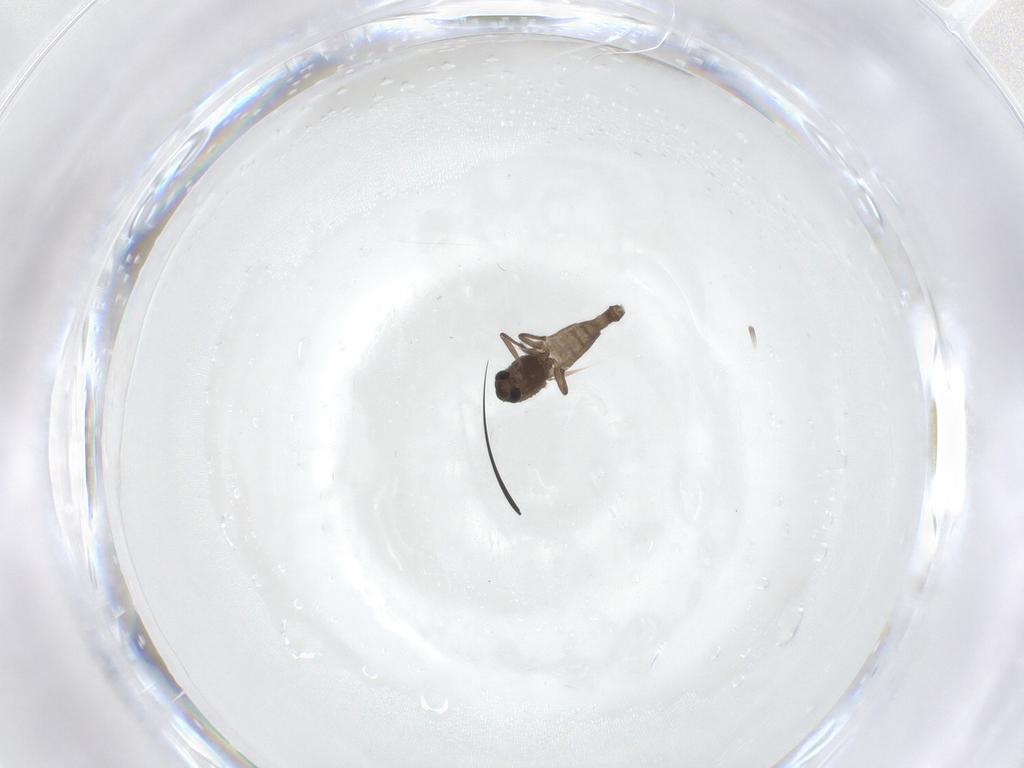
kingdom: Animalia
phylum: Arthropoda
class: Insecta
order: Diptera
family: Chironomidae
